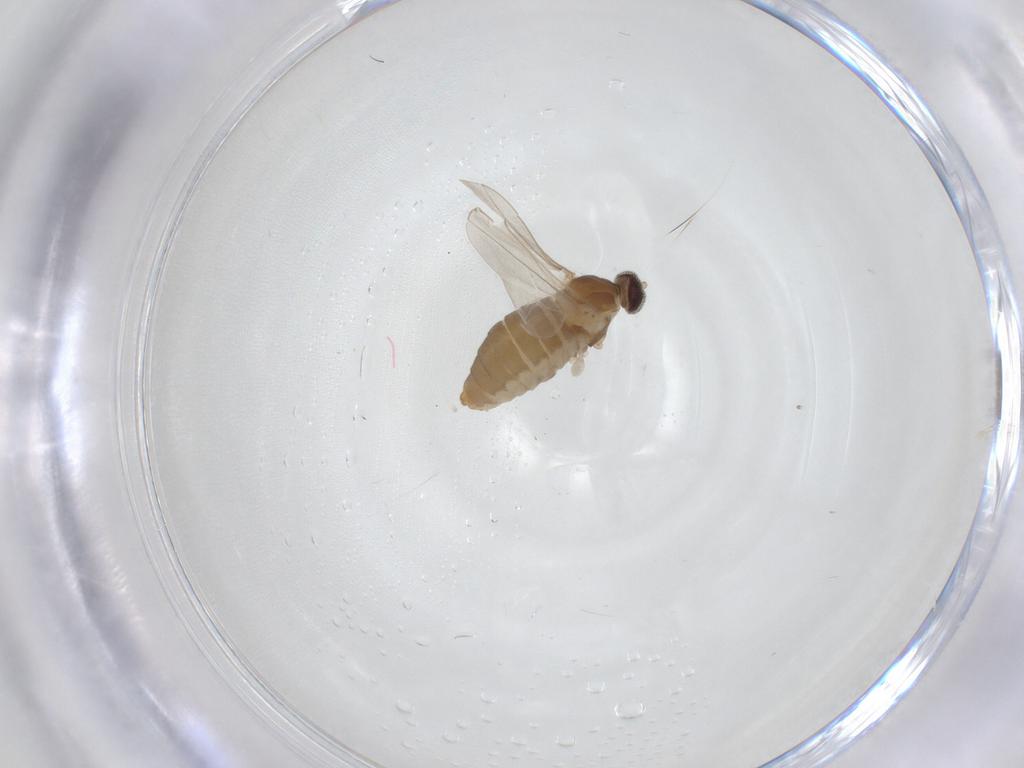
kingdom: Animalia
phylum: Arthropoda
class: Insecta
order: Diptera
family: Cecidomyiidae
